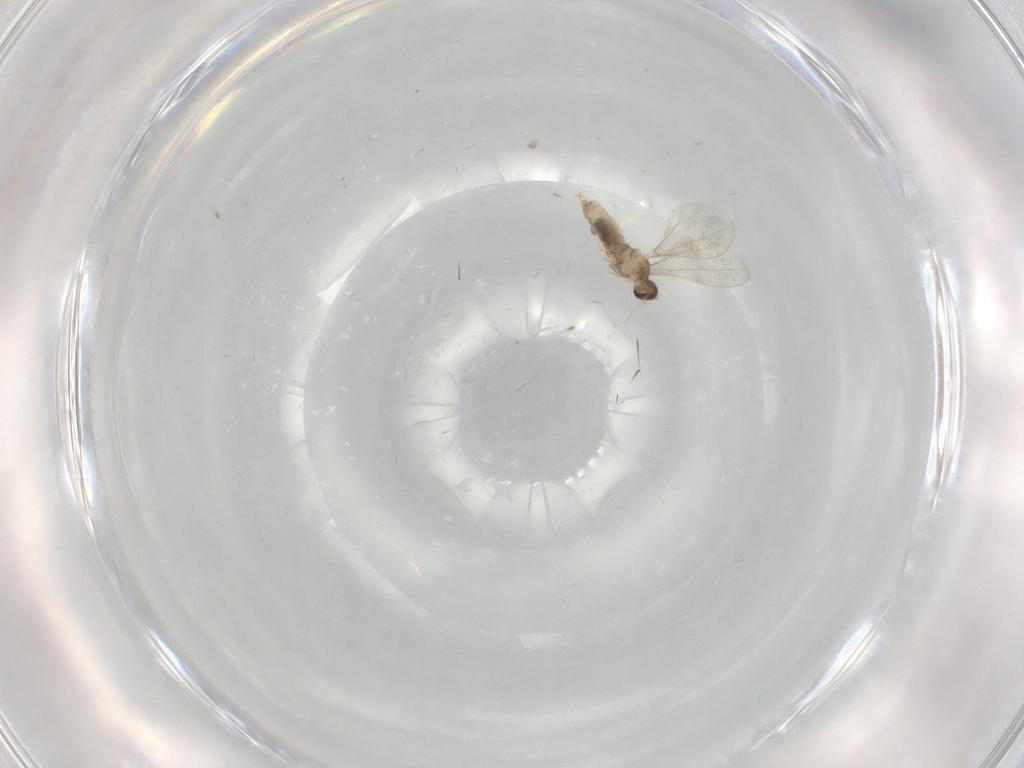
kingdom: Animalia
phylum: Arthropoda
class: Insecta
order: Diptera
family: Cecidomyiidae
